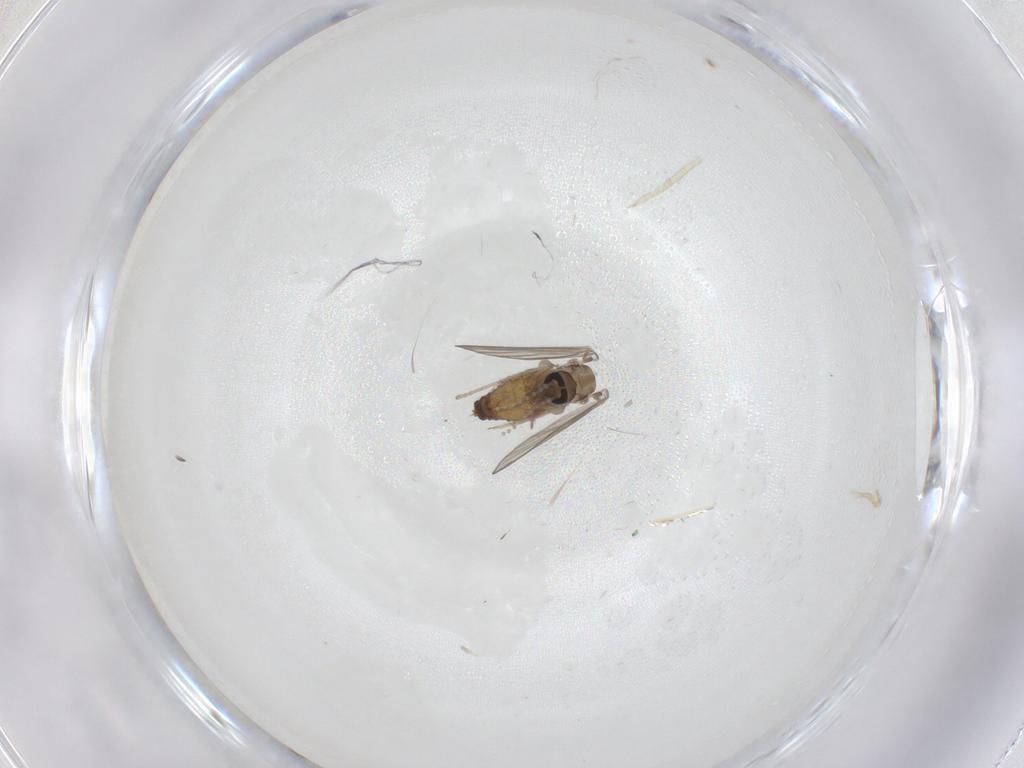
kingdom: Animalia
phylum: Arthropoda
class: Insecta
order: Diptera
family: Psychodidae
